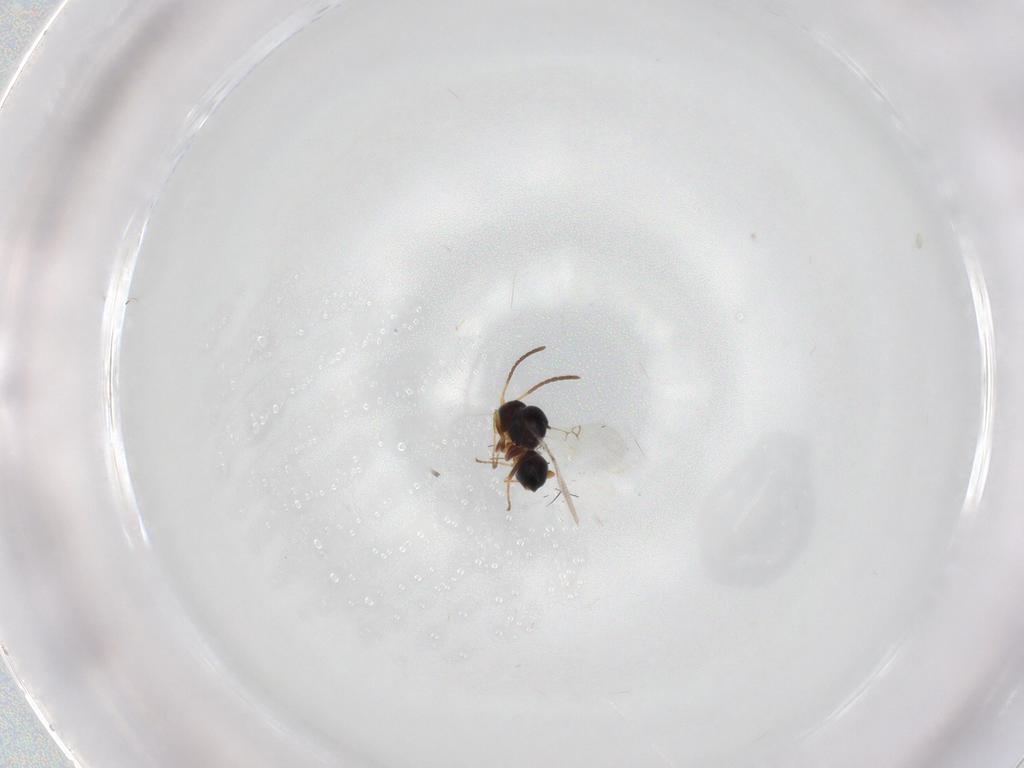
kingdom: Animalia
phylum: Arthropoda
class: Insecta
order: Hymenoptera
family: Figitidae
